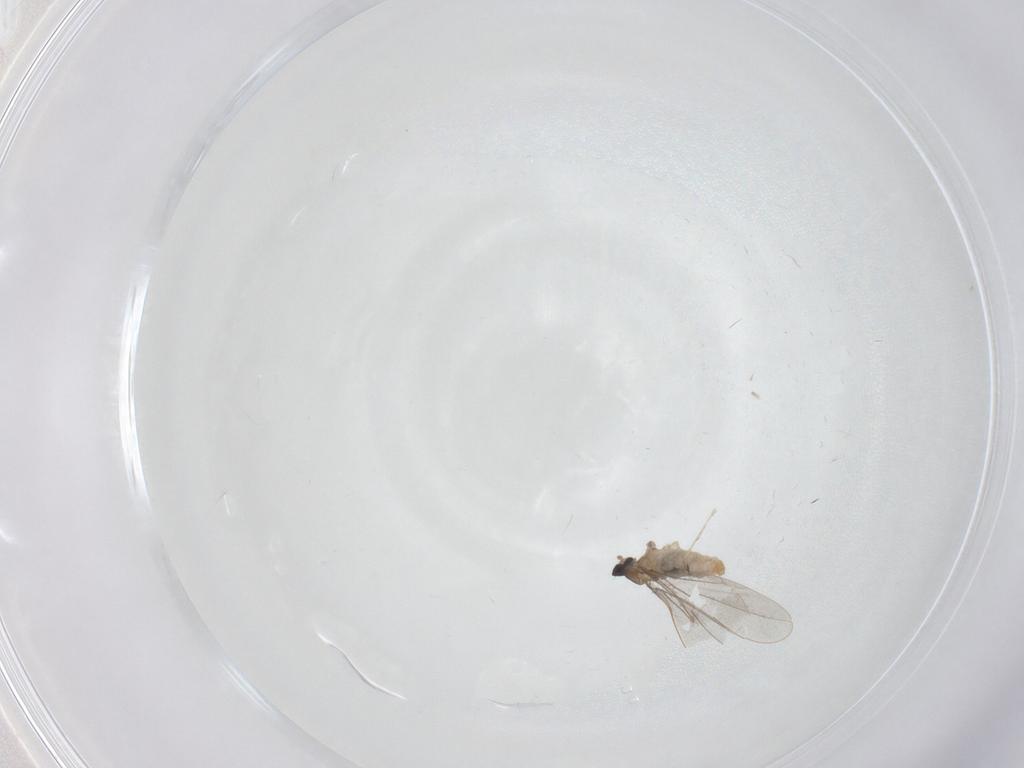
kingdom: Animalia
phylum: Arthropoda
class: Insecta
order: Diptera
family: Cecidomyiidae
